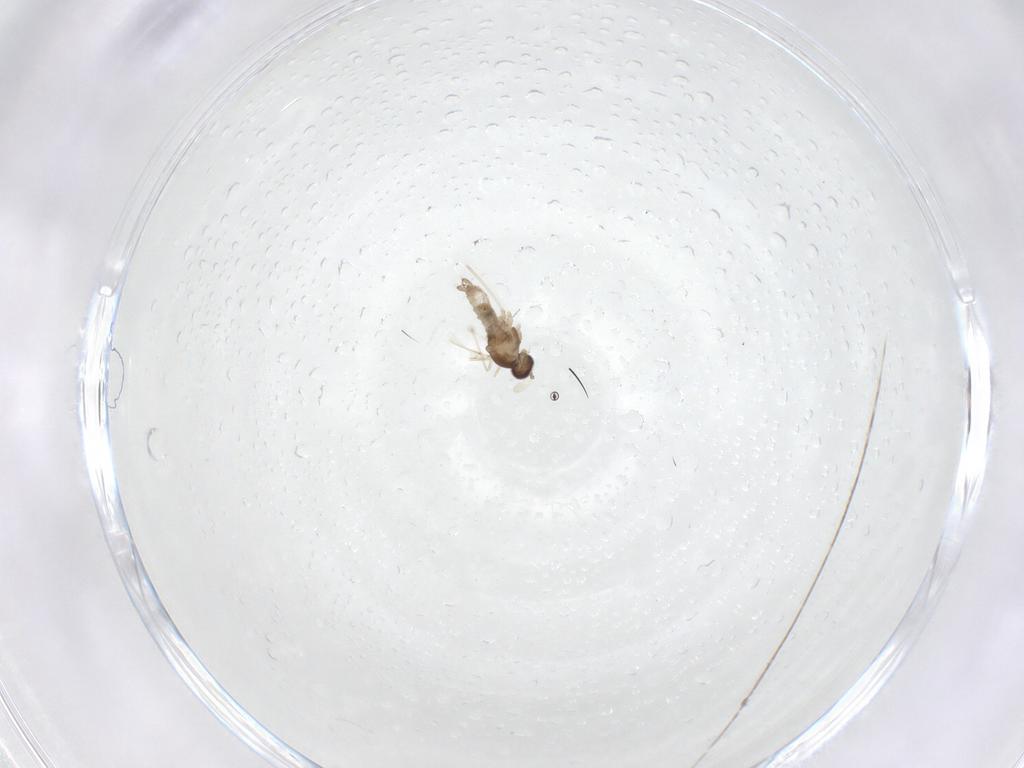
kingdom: Animalia
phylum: Arthropoda
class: Insecta
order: Diptera
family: Cecidomyiidae
